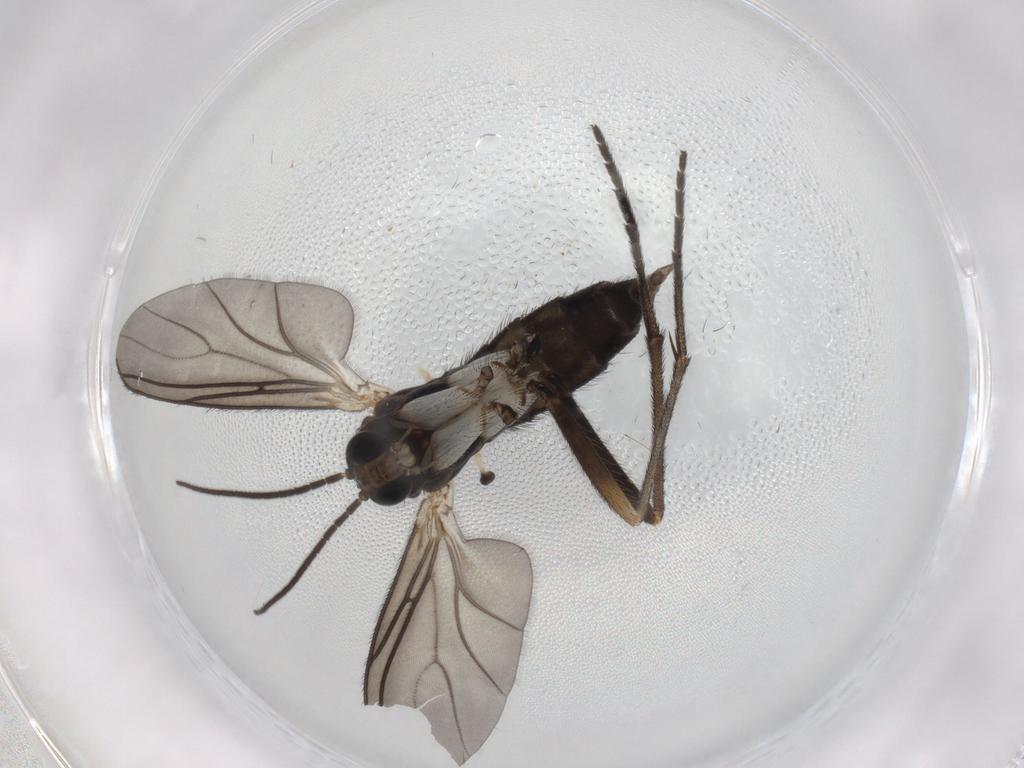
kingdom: Animalia
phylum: Arthropoda
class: Insecta
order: Diptera
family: Sciaridae
